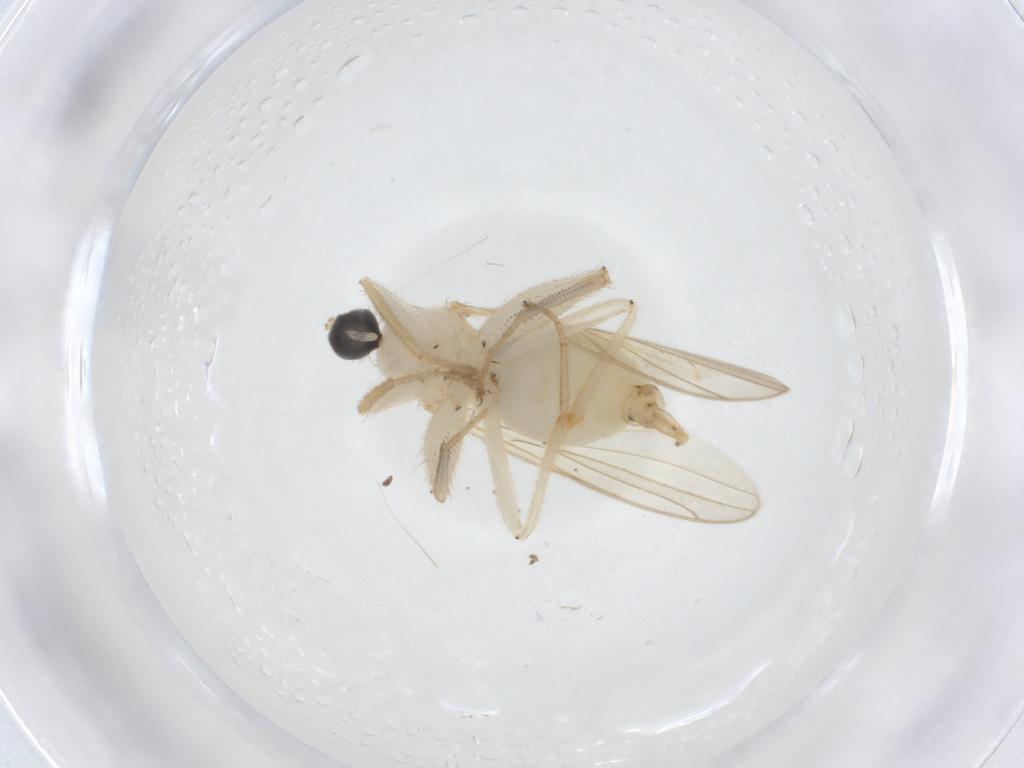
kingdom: Animalia
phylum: Arthropoda
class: Insecta
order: Diptera
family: Hybotidae
